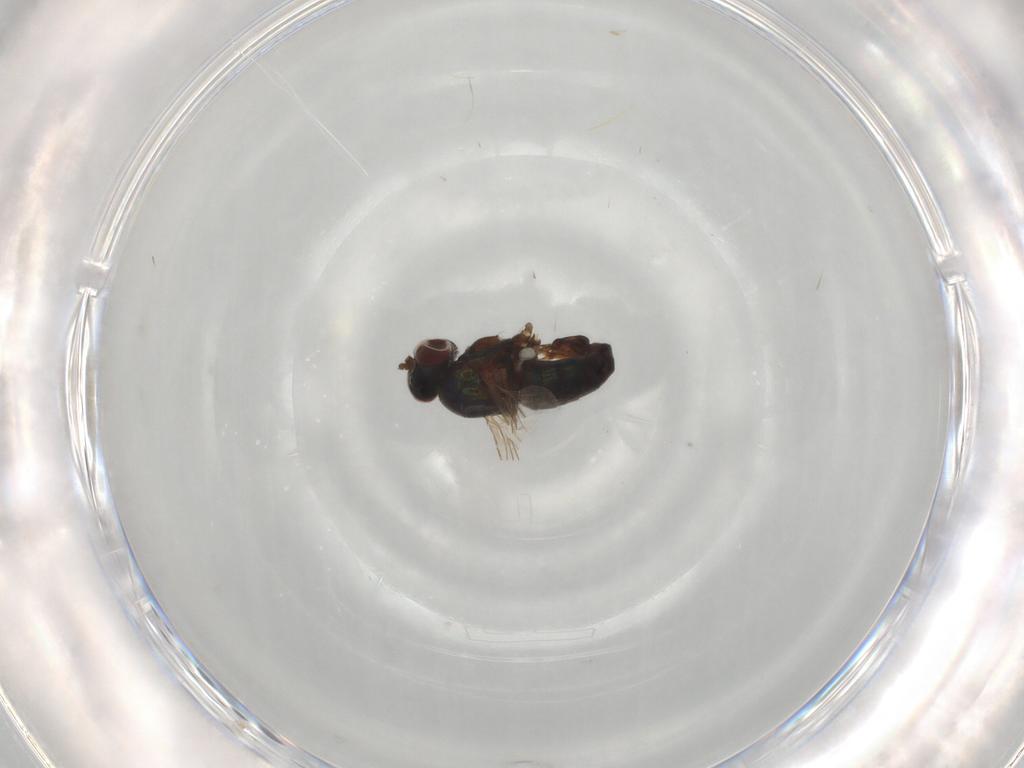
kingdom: Animalia
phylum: Arthropoda
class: Insecta
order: Diptera
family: Dolichopodidae
